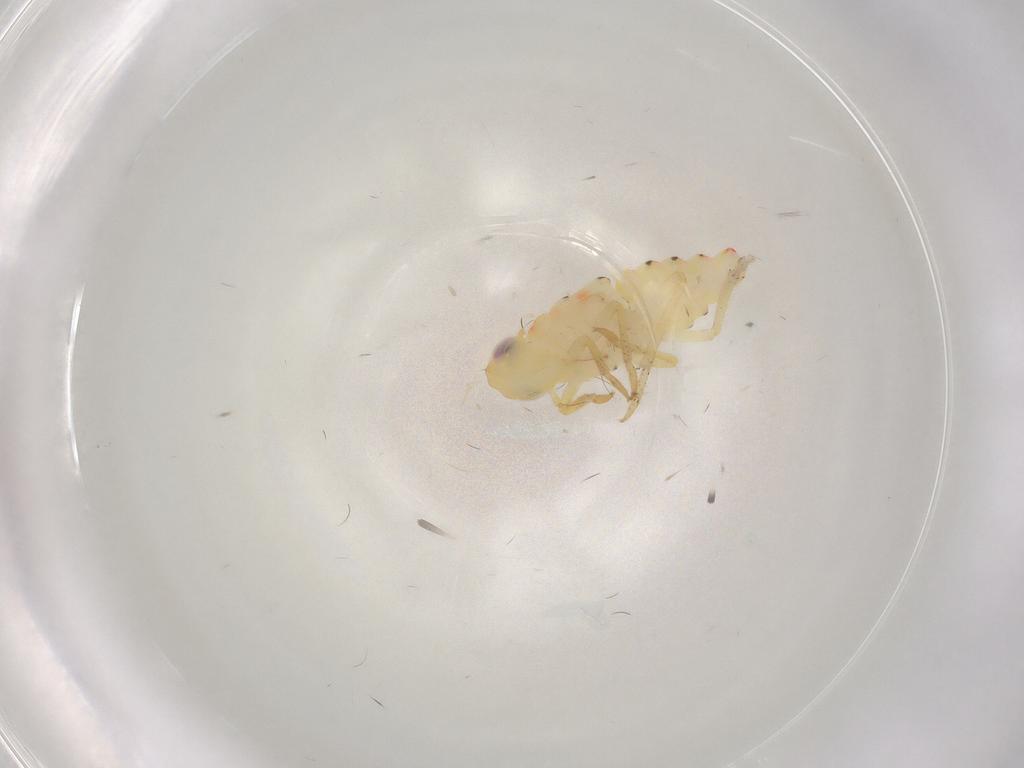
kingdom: Animalia
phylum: Arthropoda
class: Insecta
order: Hemiptera
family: Tropiduchidae
